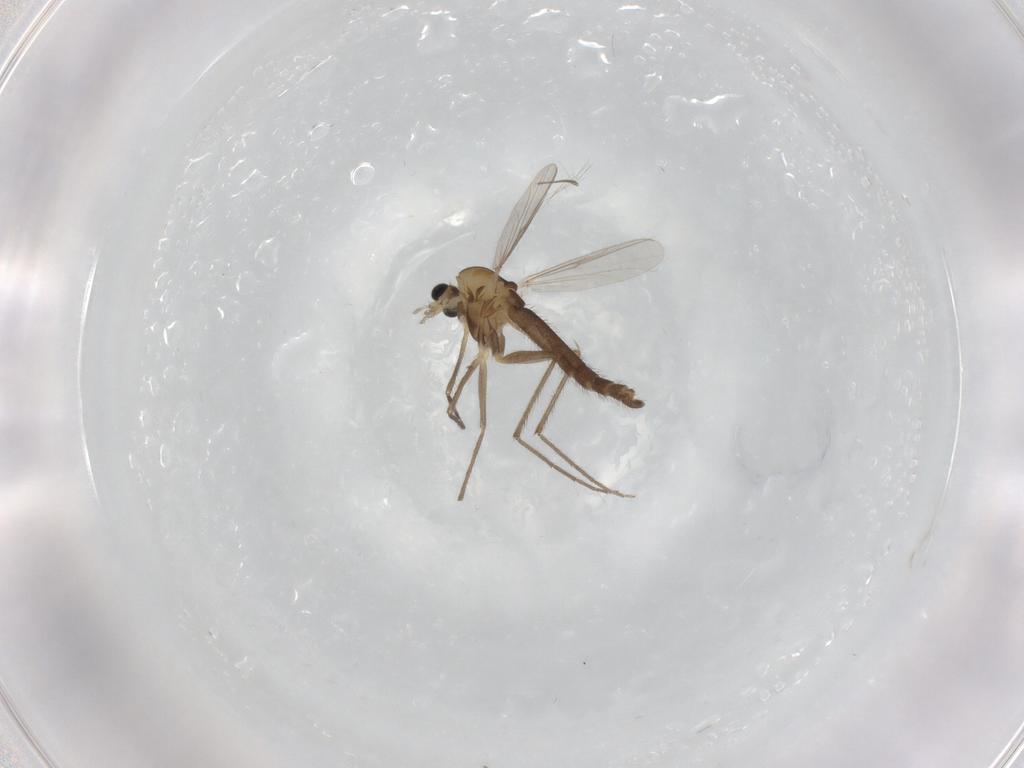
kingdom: Animalia
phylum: Arthropoda
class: Insecta
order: Diptera
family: Chironomidae
